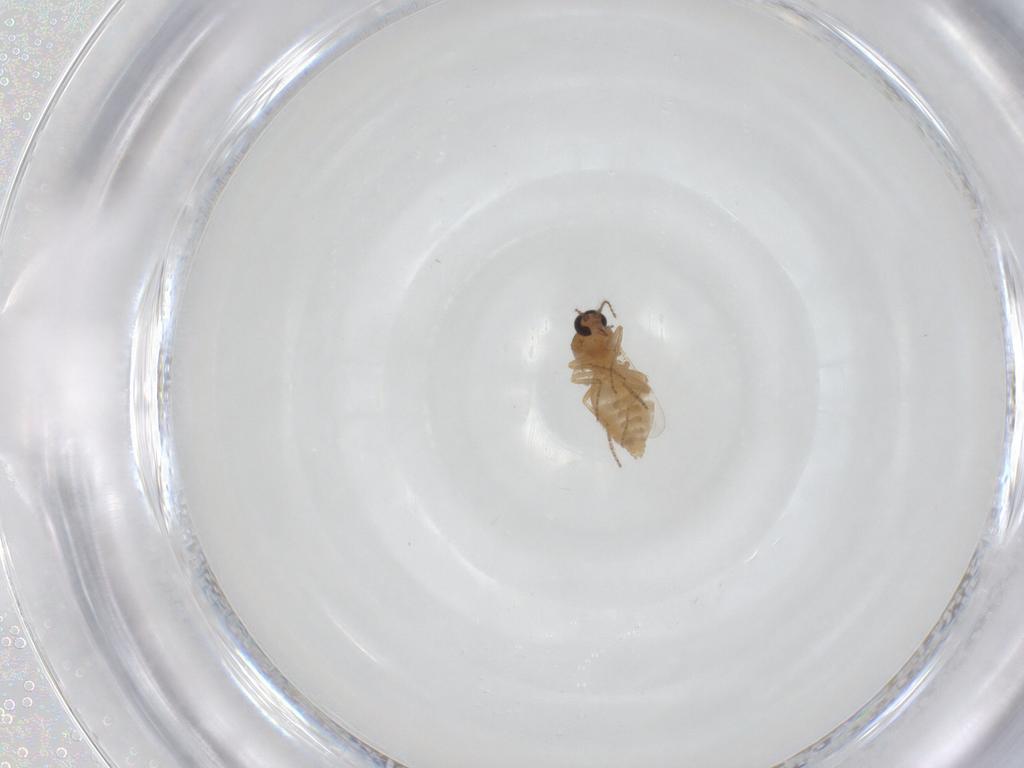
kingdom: Animalia
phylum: Arthropoda
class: Insecta
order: Diptera
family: Ceratopogonidae
